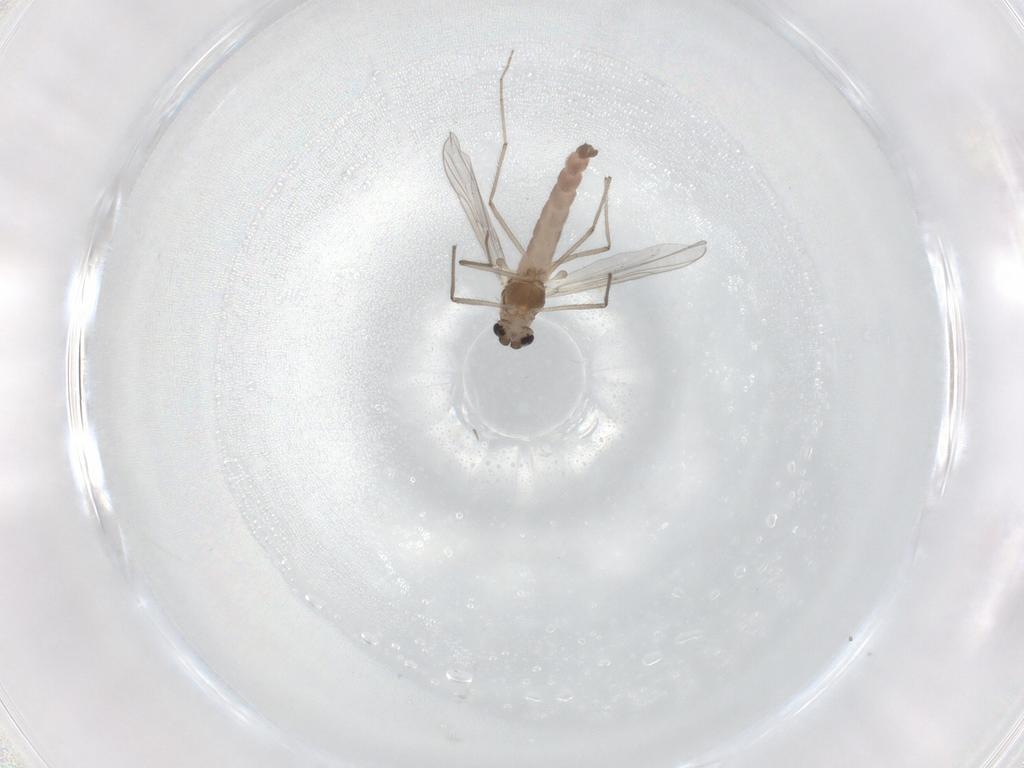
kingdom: Animalia
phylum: Arthropoda
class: Insecta
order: Diptera
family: Chironomidae
